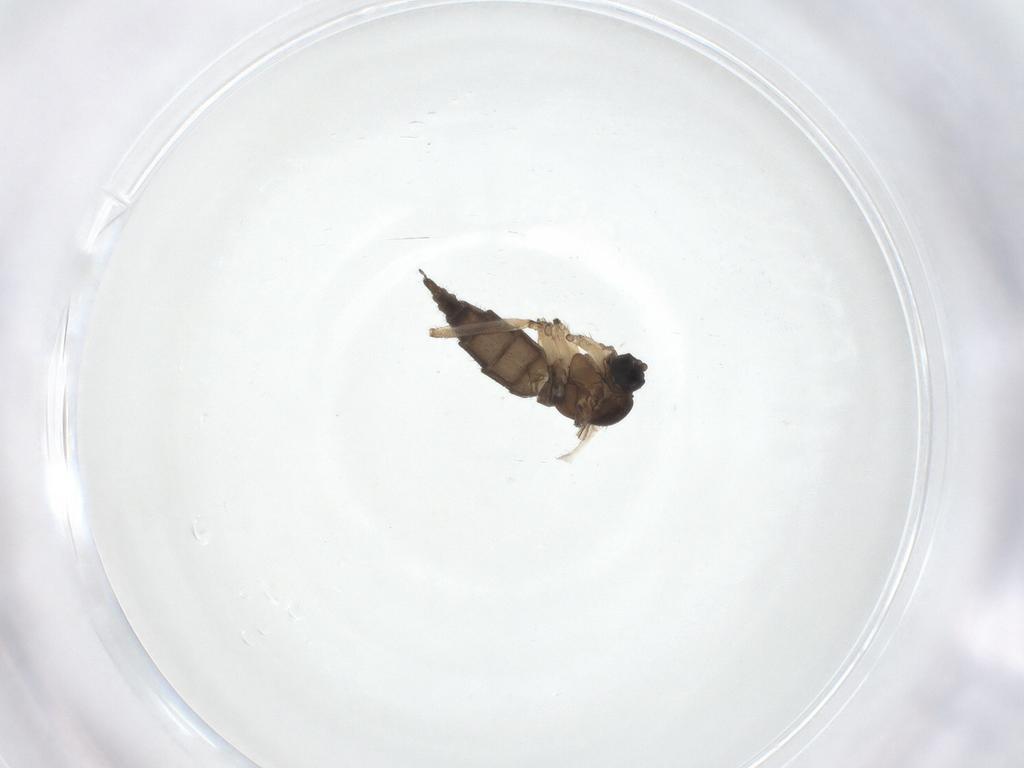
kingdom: Animalia
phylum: Arthropoda
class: Insecta
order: Diptera
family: Sciaridae
